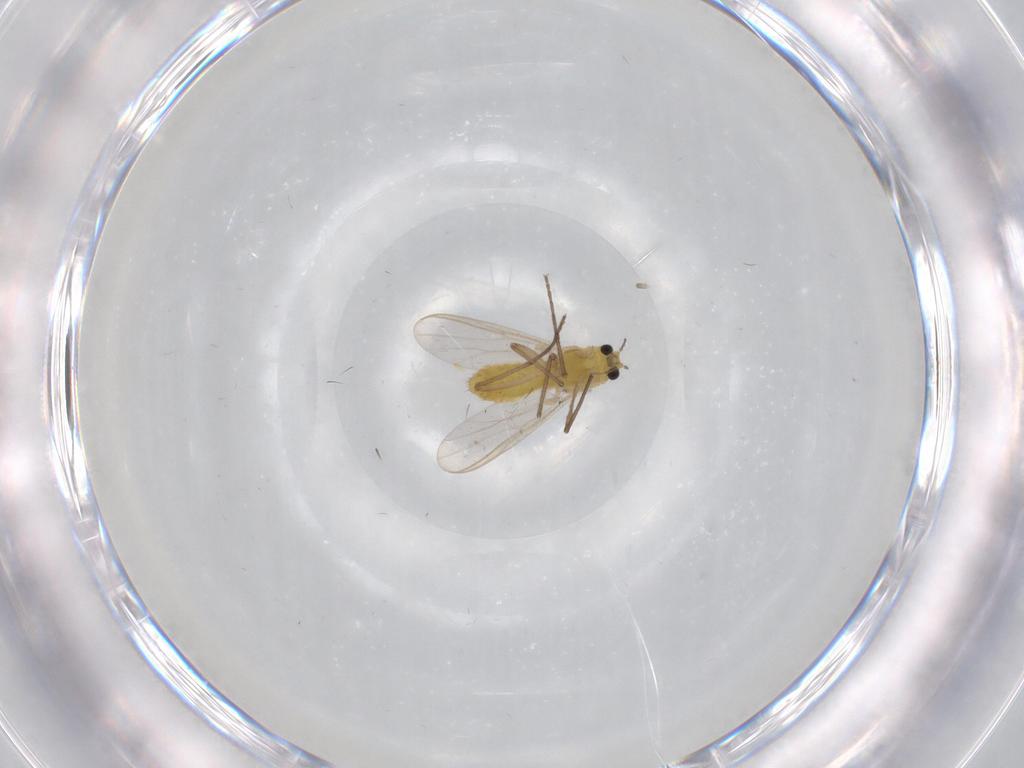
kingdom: Animalia
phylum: Arthropoda
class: Insecta
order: Diptera
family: Chironomidae
